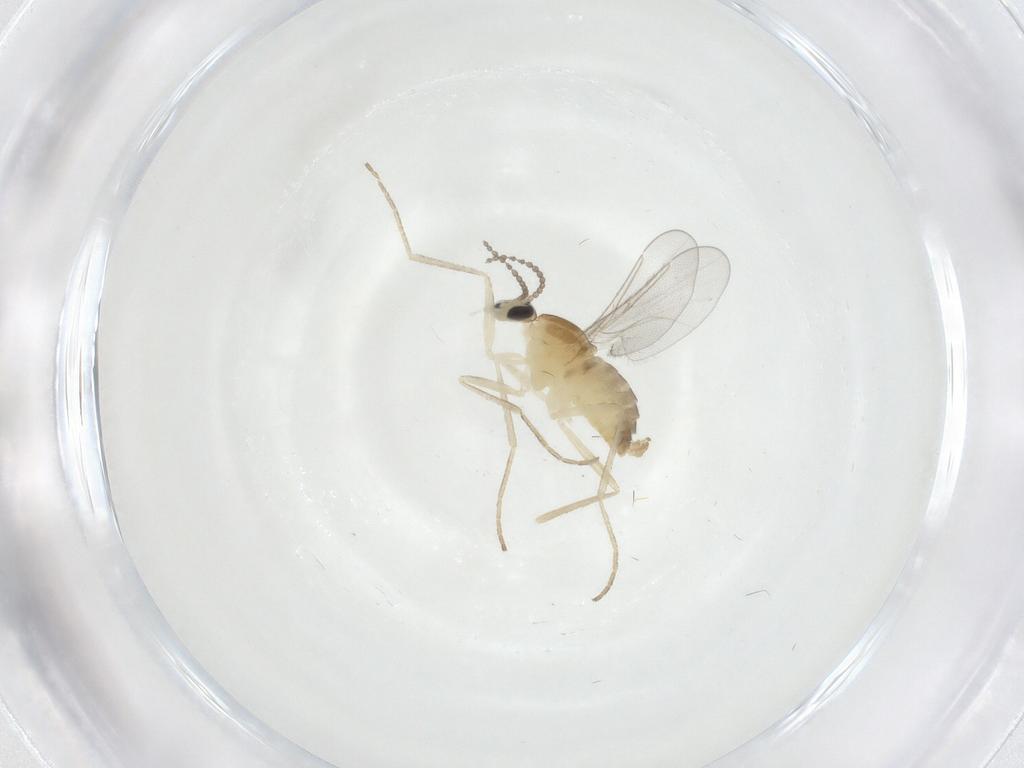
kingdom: Animalia
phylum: Arthropoda
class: Insecta
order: Diptera
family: Cecidomyiidae
